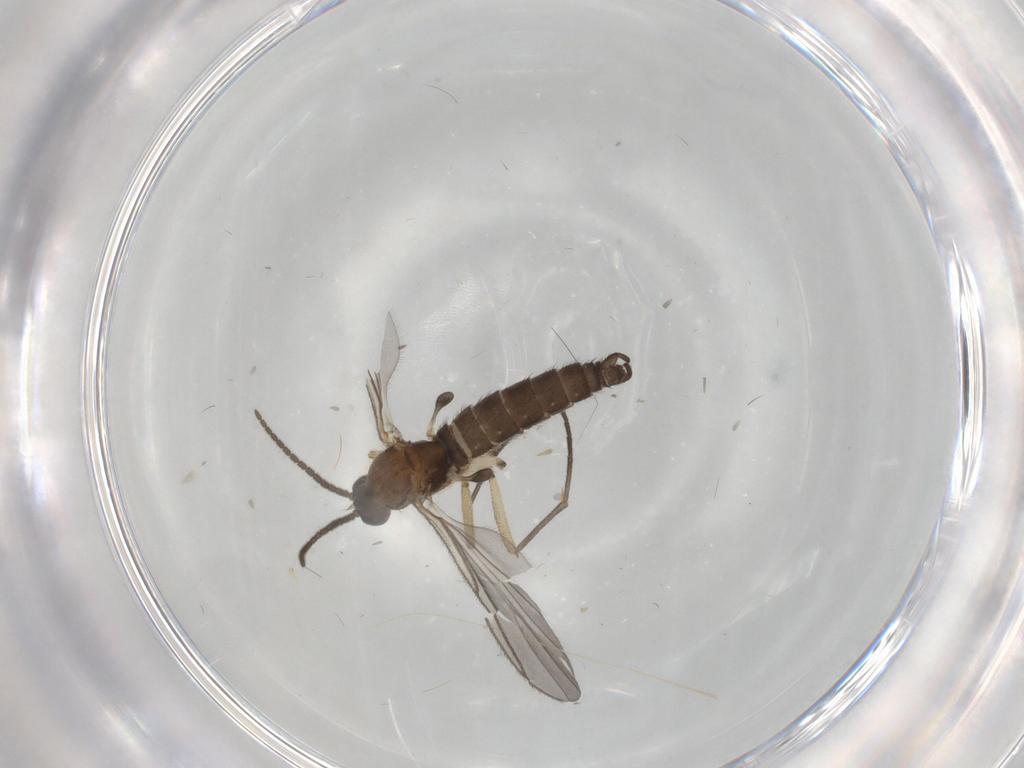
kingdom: Animalia
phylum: Arthropoda
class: Insecta
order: Diptera
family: Sciaridae
